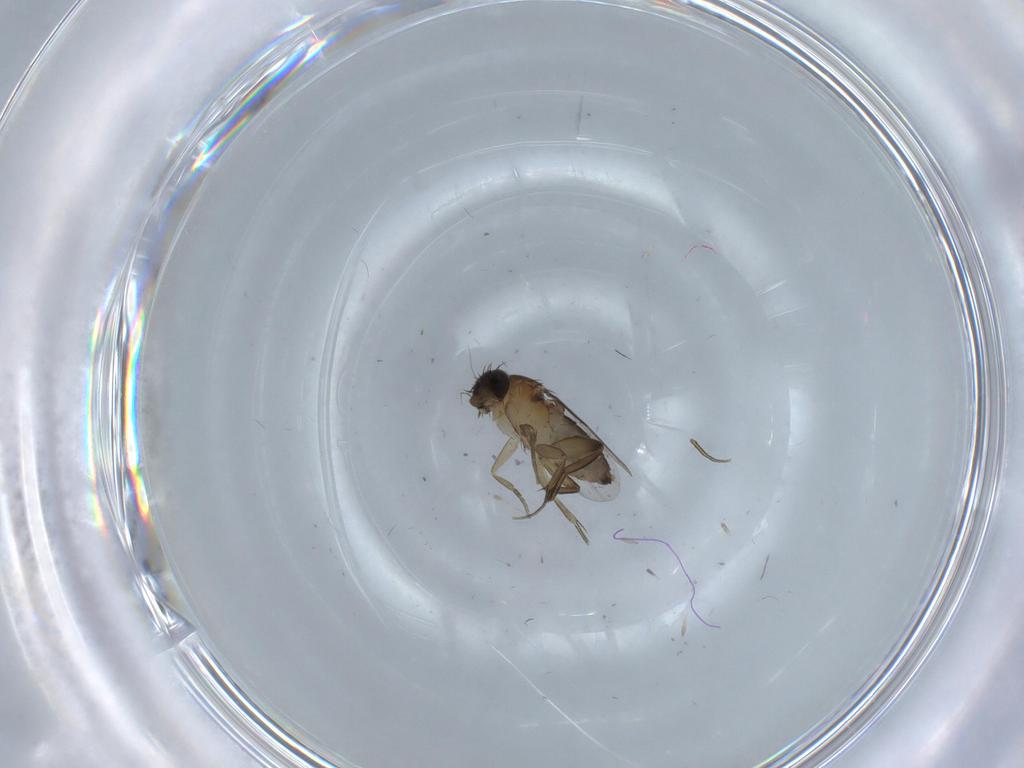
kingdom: Animalia
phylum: Arthropoda
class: Insecta
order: Diptera
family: Phoridae
